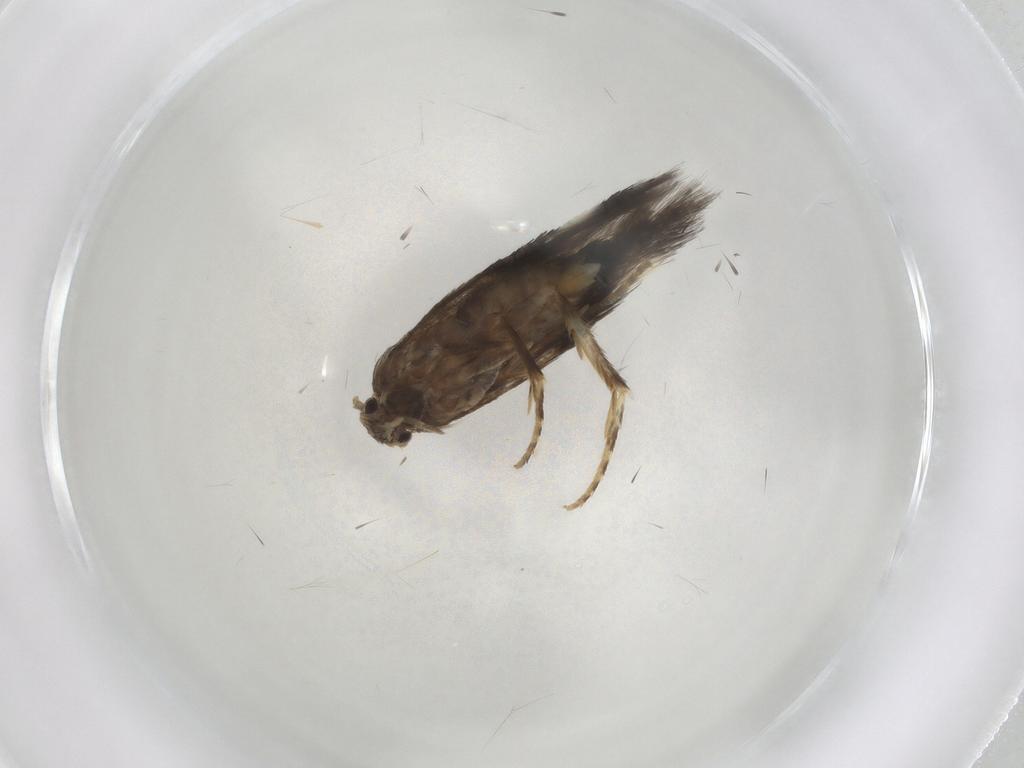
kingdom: Animalia
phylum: Arthropoda
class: Insecta
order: Lepidoptera
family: Elachistidae
